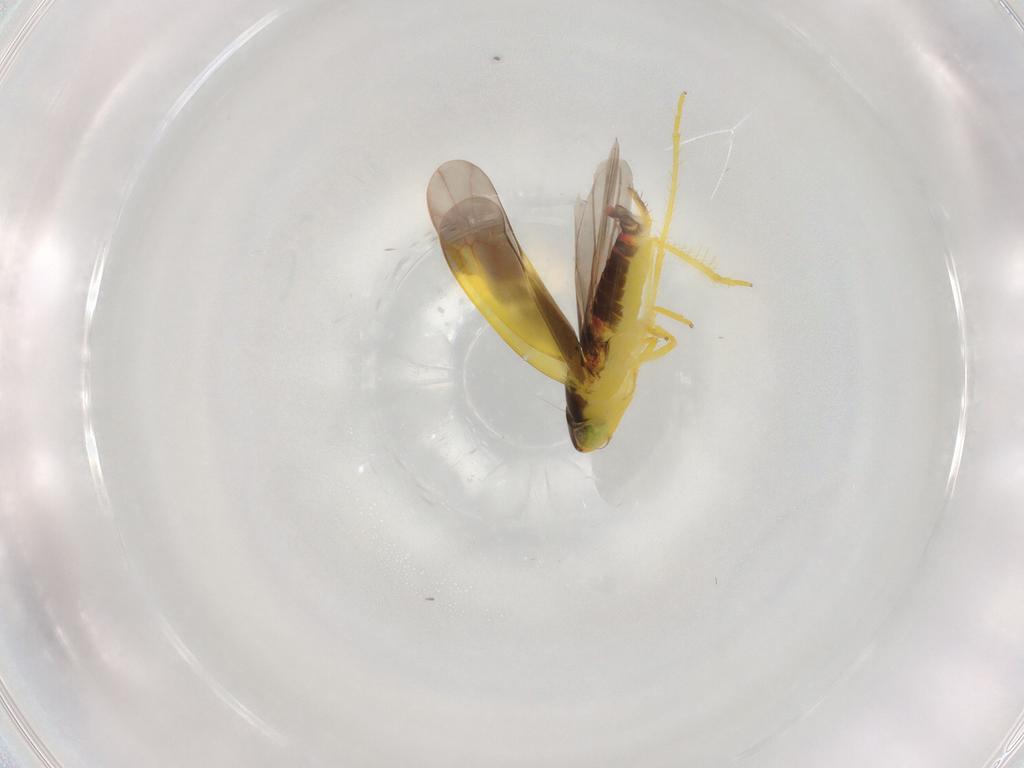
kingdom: Animalia
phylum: Arthropoda
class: Insecta
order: Hemiptera
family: Cicadellidae
